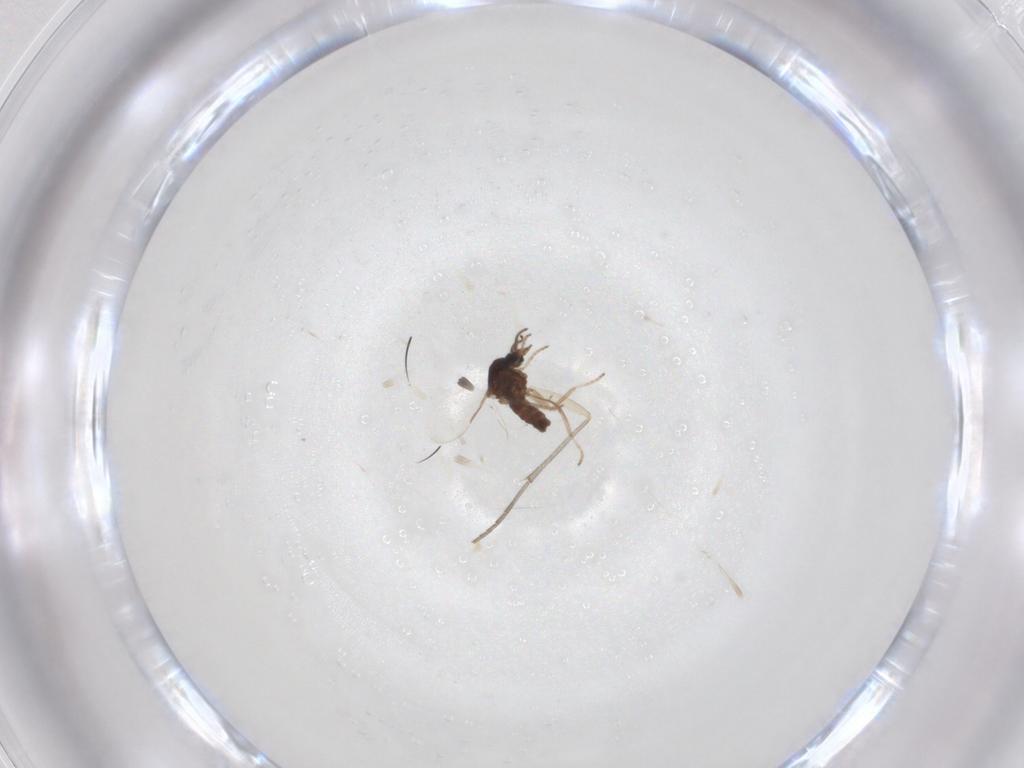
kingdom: Animalia
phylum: Arthropoda
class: Insecta
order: Diptera
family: Ceratopogonidae
